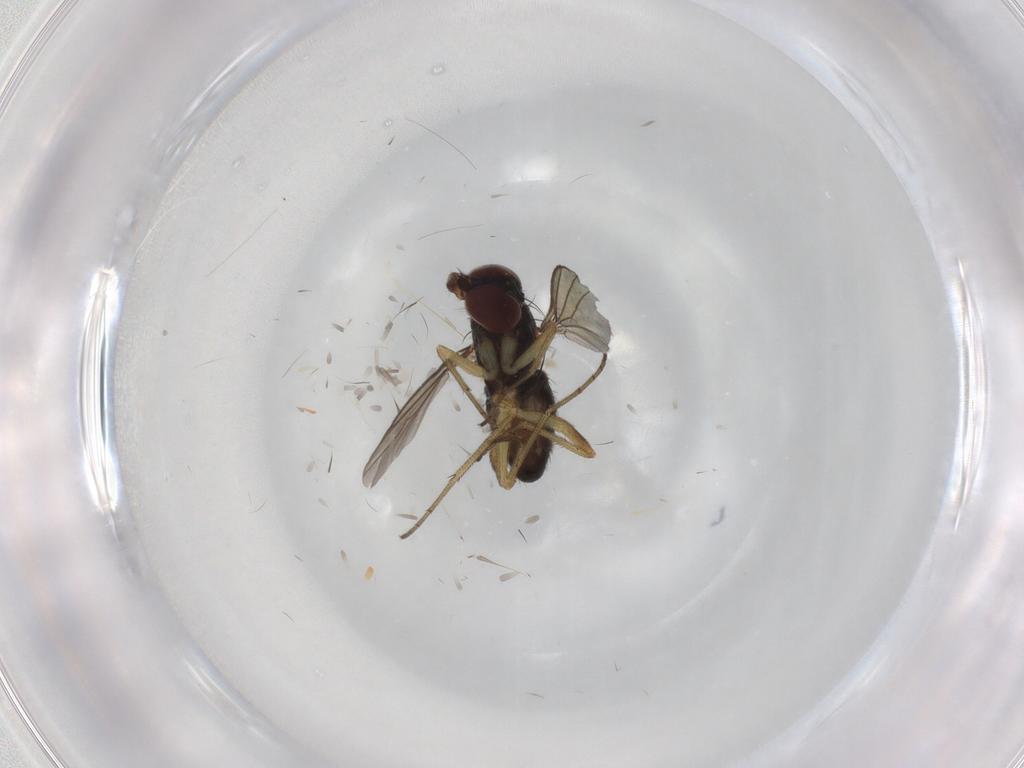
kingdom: Animalia
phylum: Arthropoda
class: Insecta
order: Diptera
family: Dolichopodidae
